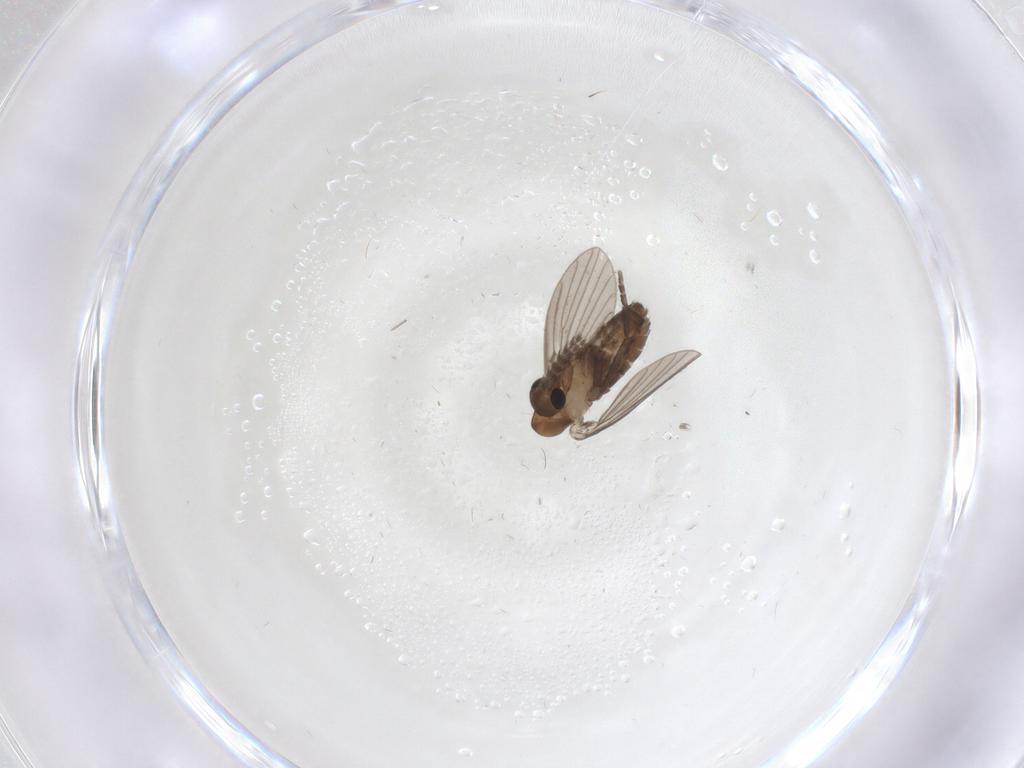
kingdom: Animalia
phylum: Arthropoda
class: Insecta
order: Diptera
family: Psychodidae
